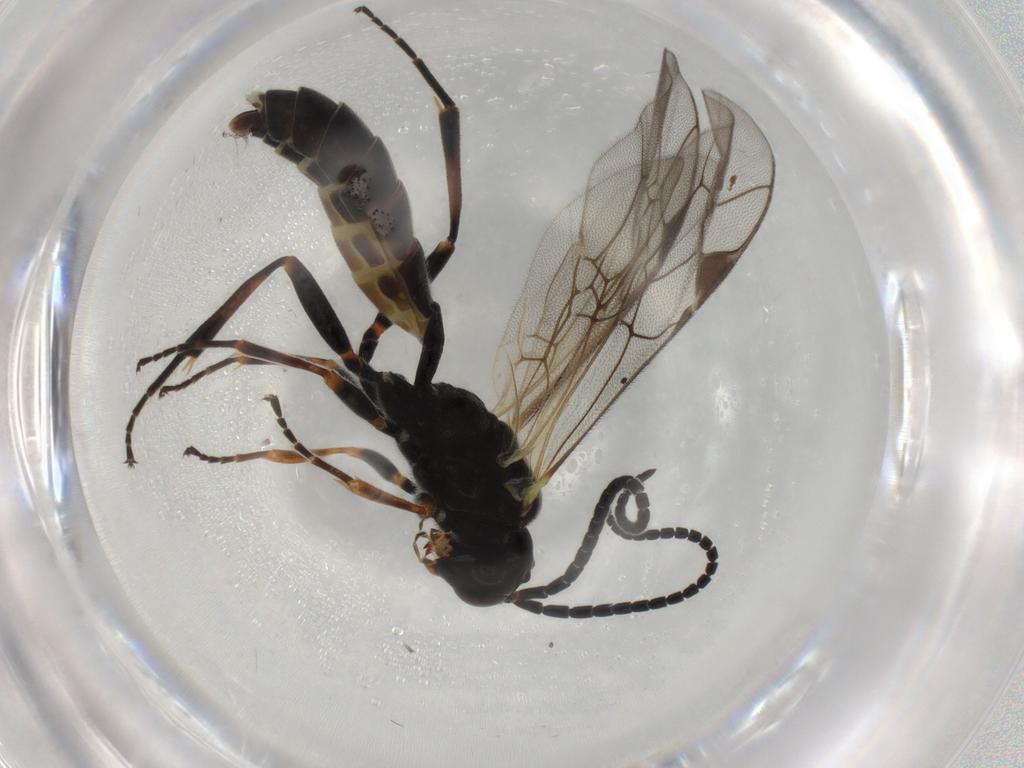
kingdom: Animalia
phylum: Arthropoda
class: Insecta
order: Hymenoptera
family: Ichneumonidae
